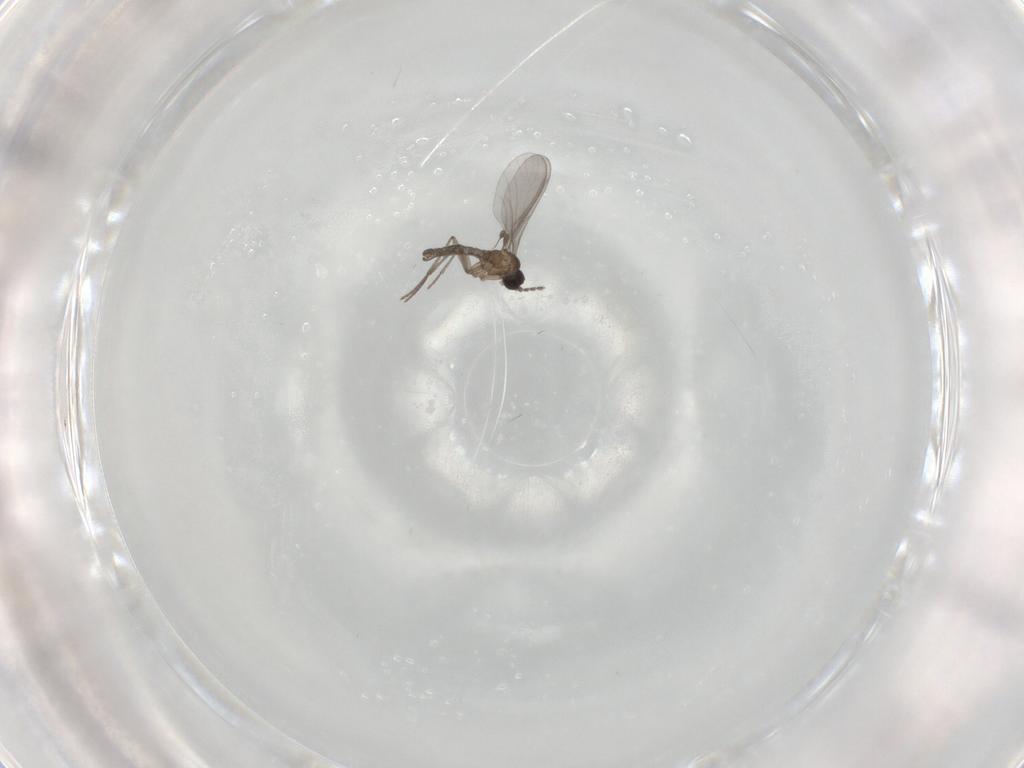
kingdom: Animalia
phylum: Arthropoda
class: Insecta
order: Diptera
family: Sciaridae
